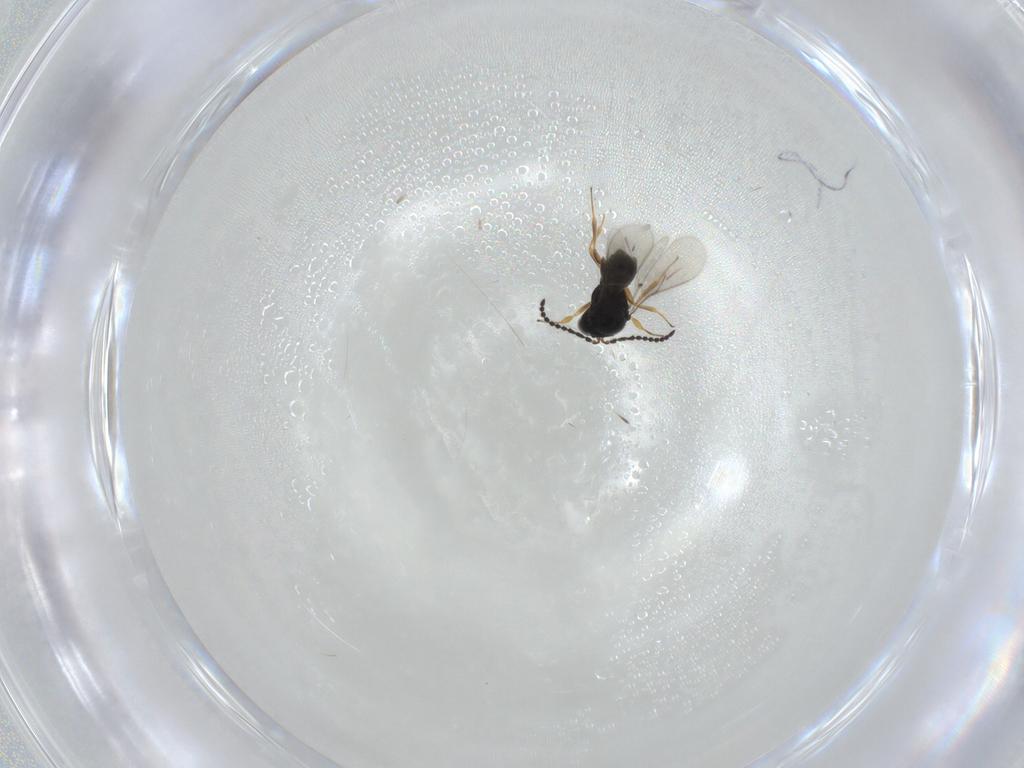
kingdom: Animalia
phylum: Arthropoda
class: Insecta
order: Hymenoptera
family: Scelionidae
